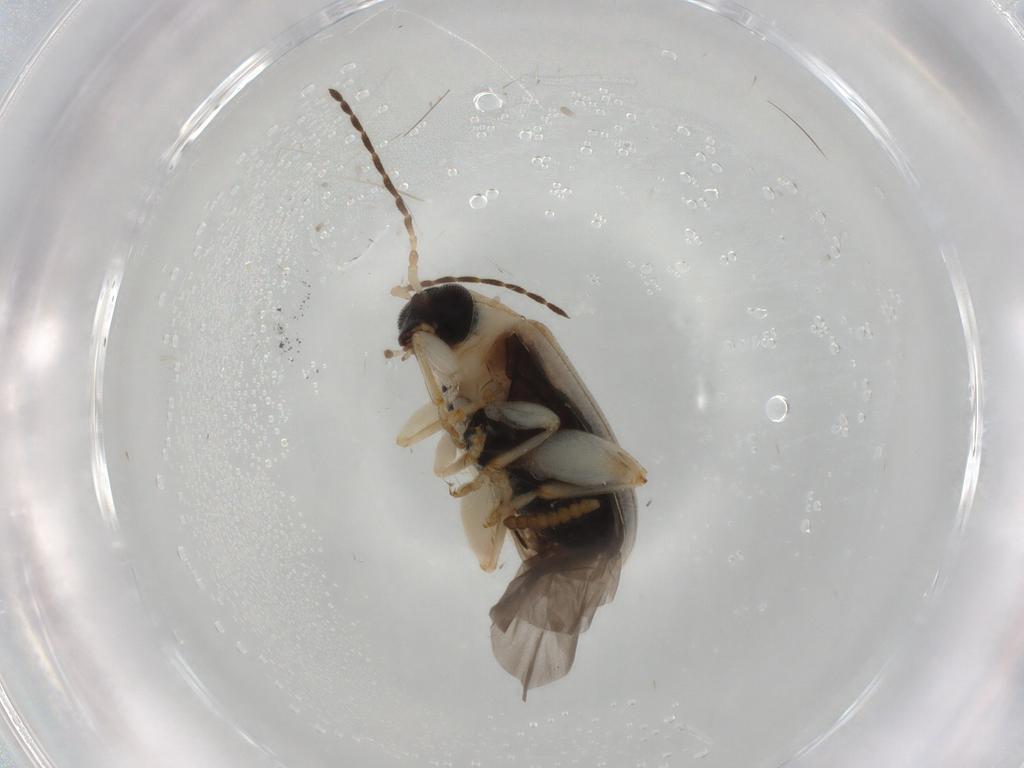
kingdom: Animalia
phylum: Arthropoda
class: Insecta
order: Coleoptera
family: Chrysomelidae
